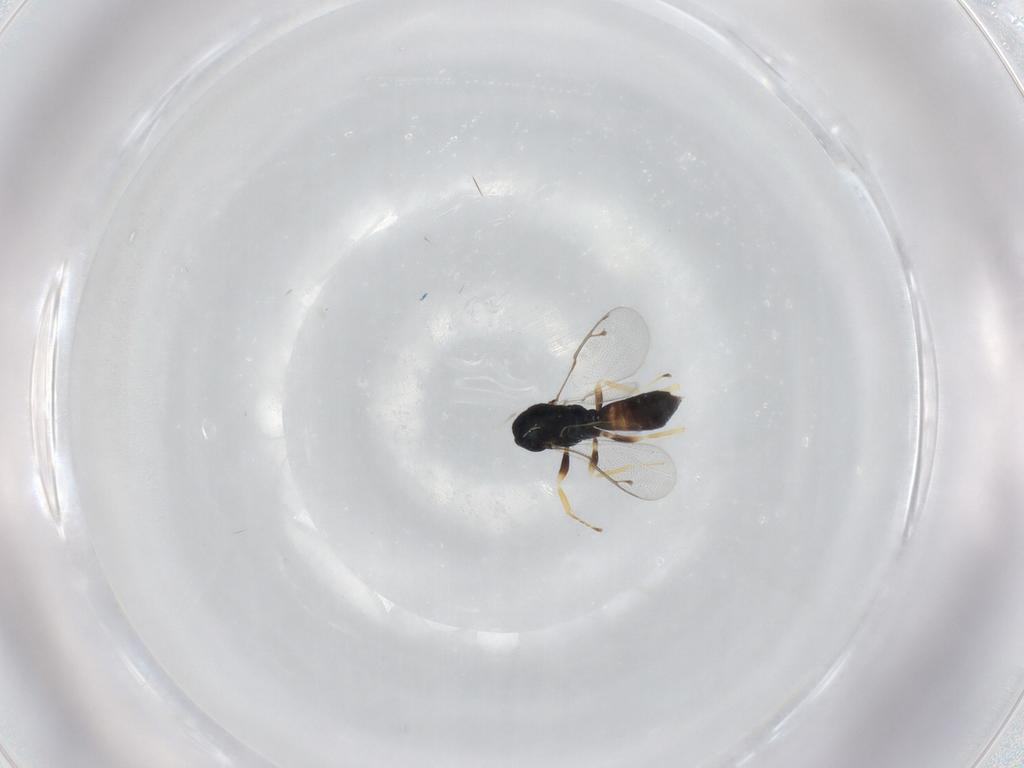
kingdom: Animalia
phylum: Arthropoda
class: Insecta
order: Hymenoptera
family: Pteromalidae
